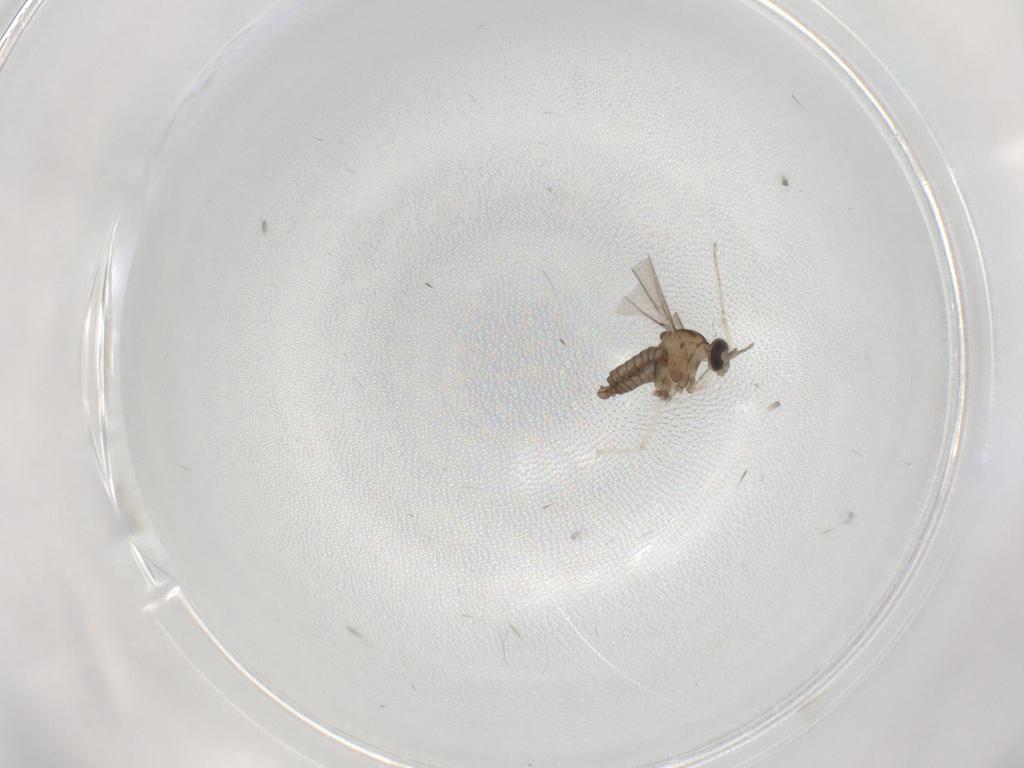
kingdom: Animalia
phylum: Arthropoda
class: Insecta
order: Diptera
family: Cecidomyiidae
